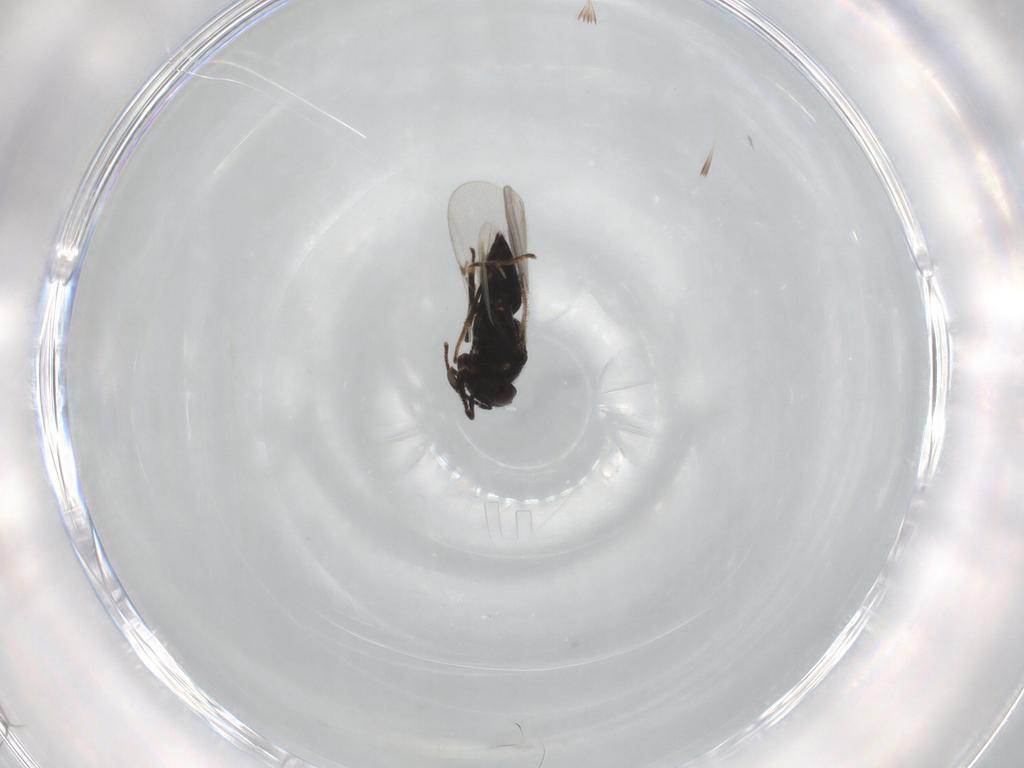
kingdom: Animalia
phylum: Arthropoda
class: Insecta
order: Hymenoptera
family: Encyrtidae
